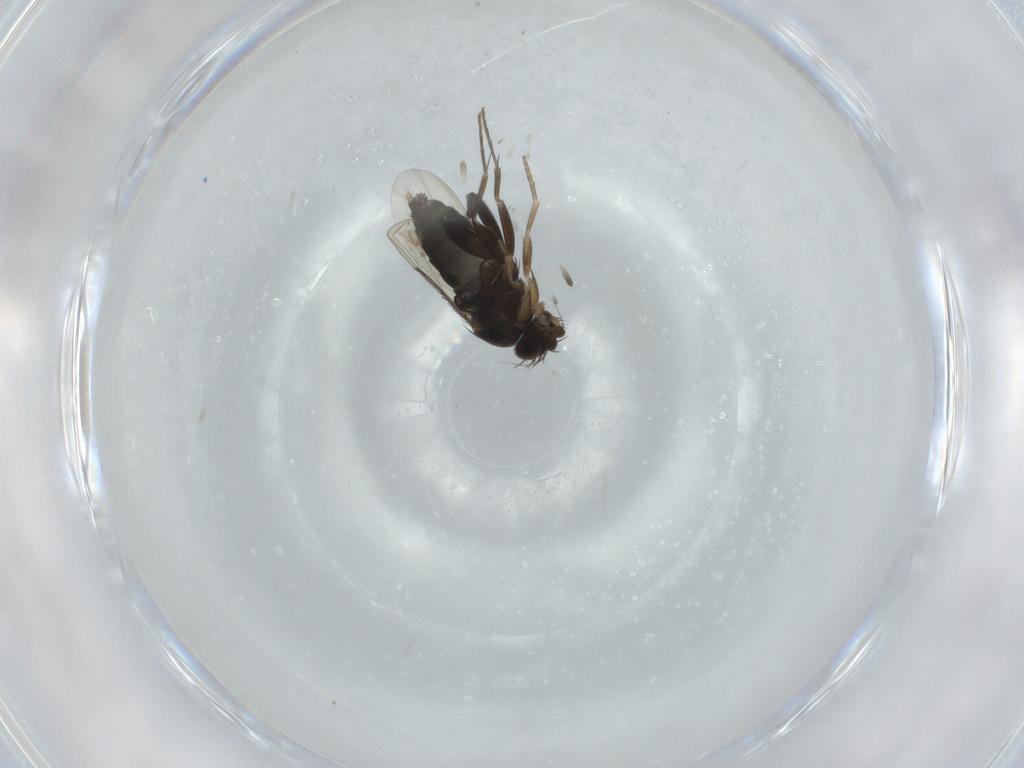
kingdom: Animalia
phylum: Arthropoda
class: Insecta
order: Diptera
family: Phoridae
